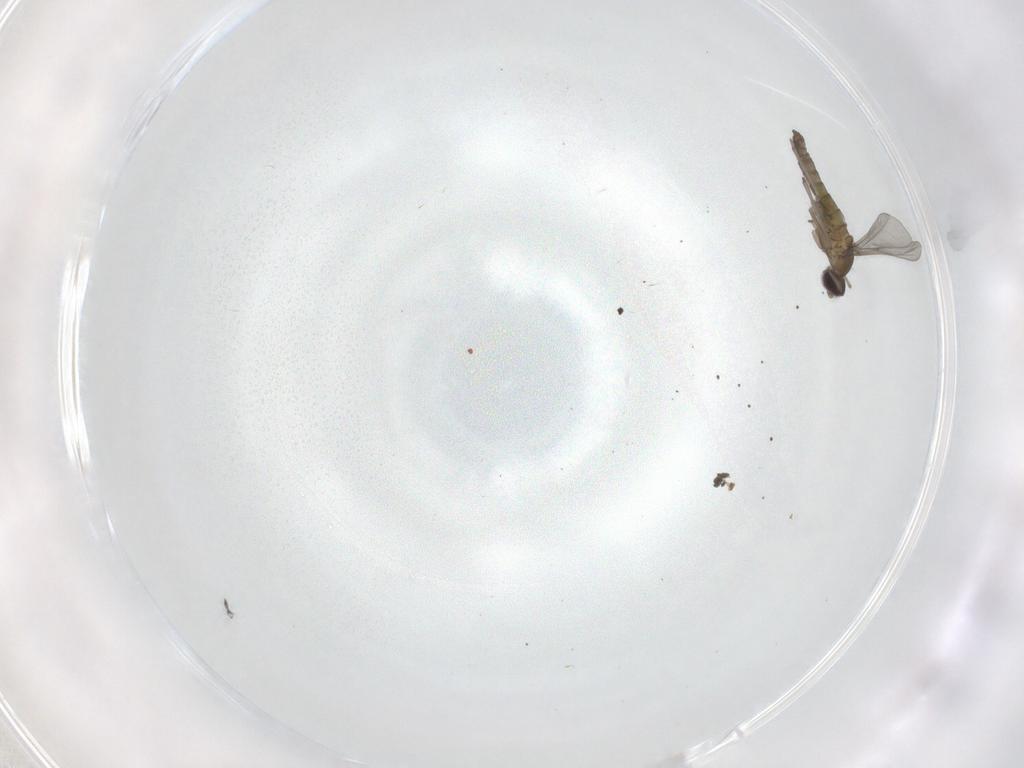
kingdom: Animalia
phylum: Arthropoda
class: Insecta
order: Diptera
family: Sciaridae
